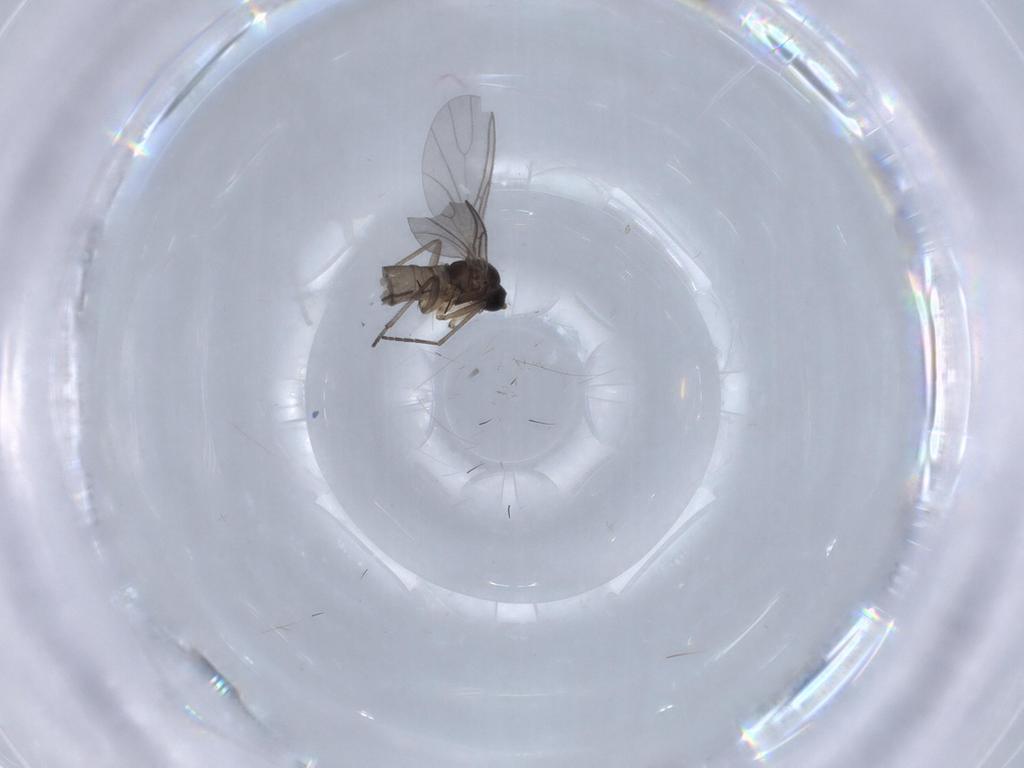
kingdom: Animalia
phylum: Arthropoda
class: Insecta
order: Diptera
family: Sciaridae
